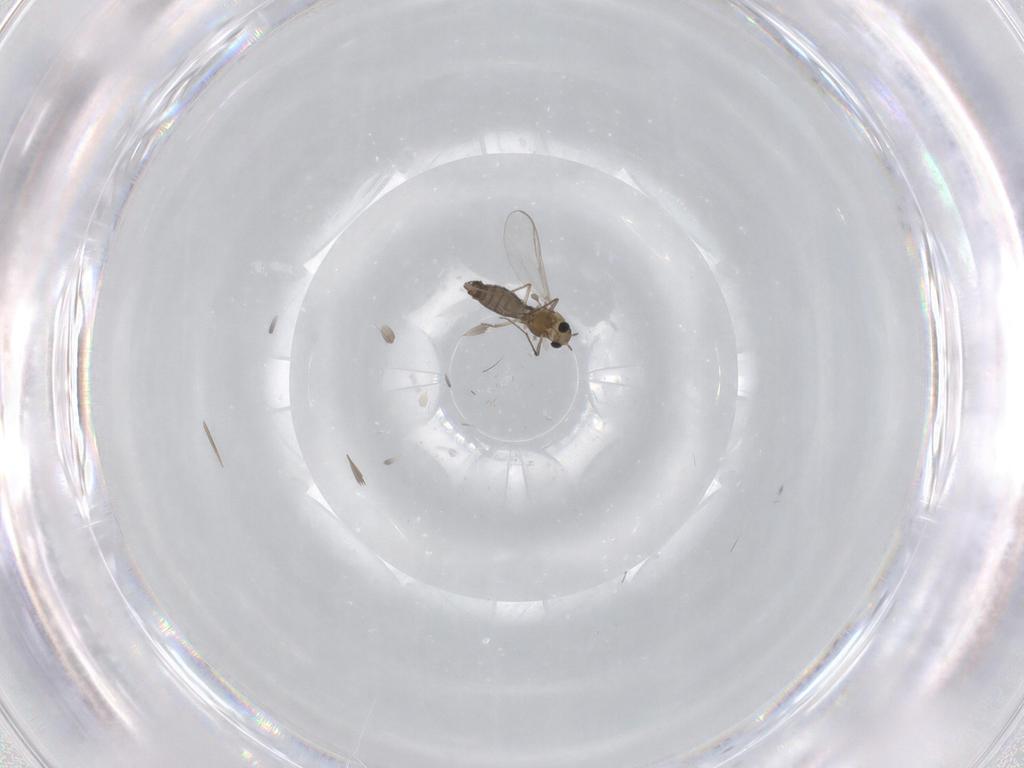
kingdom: Animalia
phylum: Arthropoda
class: Insecta
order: Diptera
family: Chironomidae
